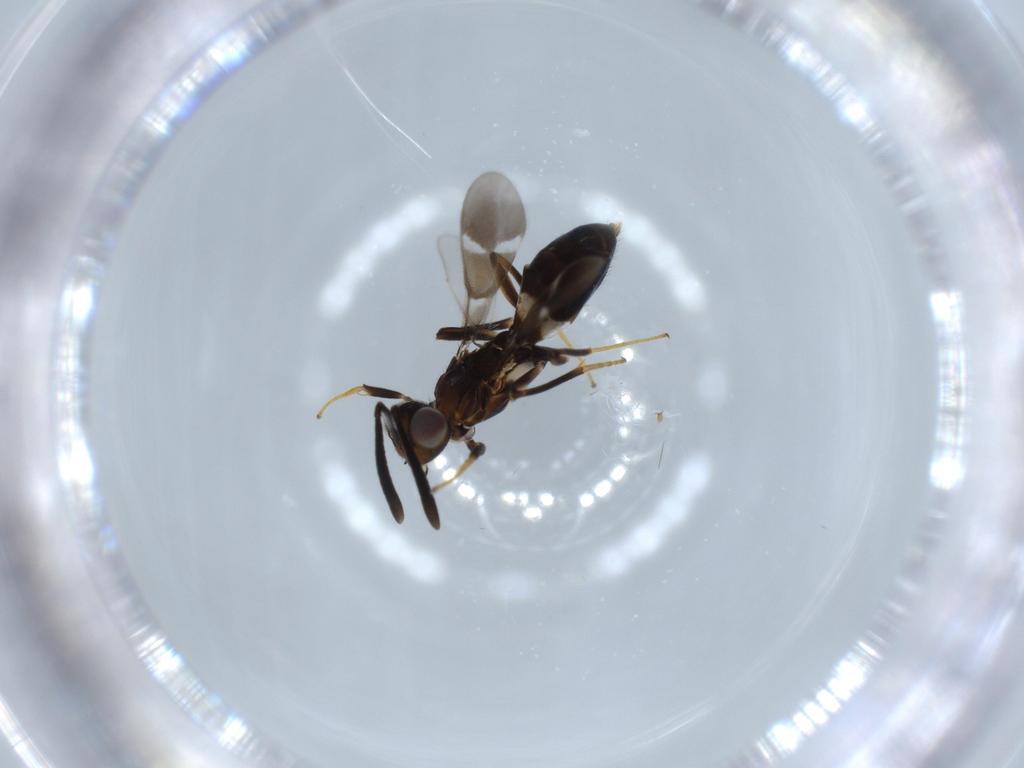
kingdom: Animalia
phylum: Arthropoda
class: Insecta
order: Hymenoptera
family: Eupelmidae
